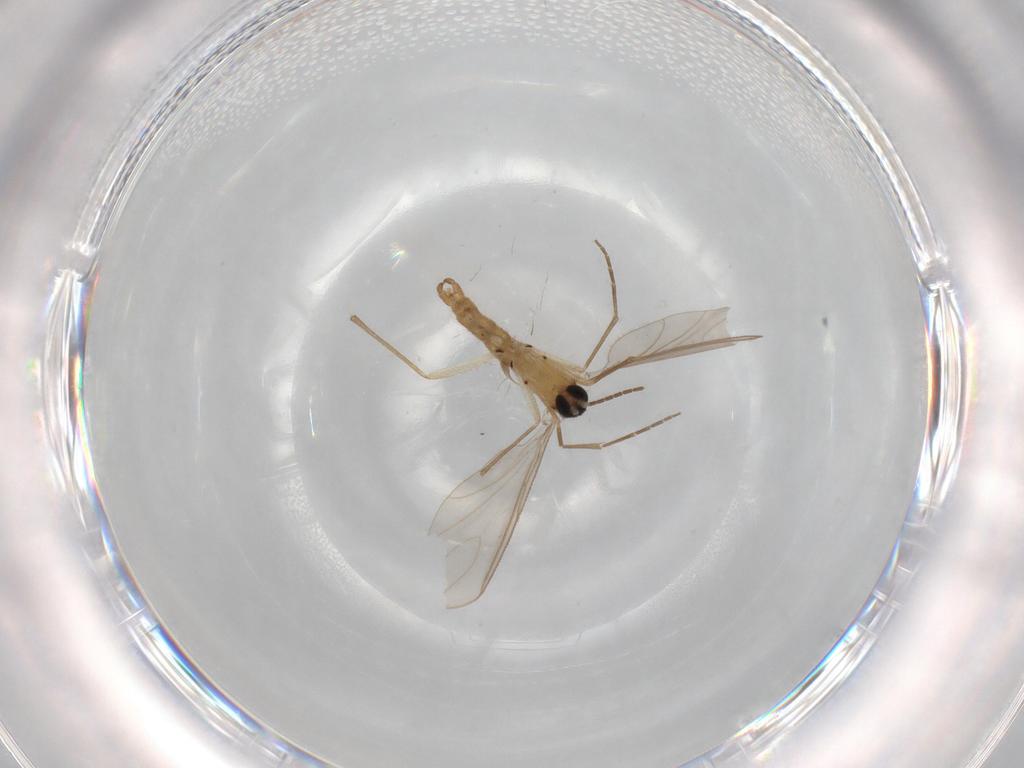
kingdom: Animalia
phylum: Arthropoda
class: Insecta
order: Diptera
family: Sciaridae
